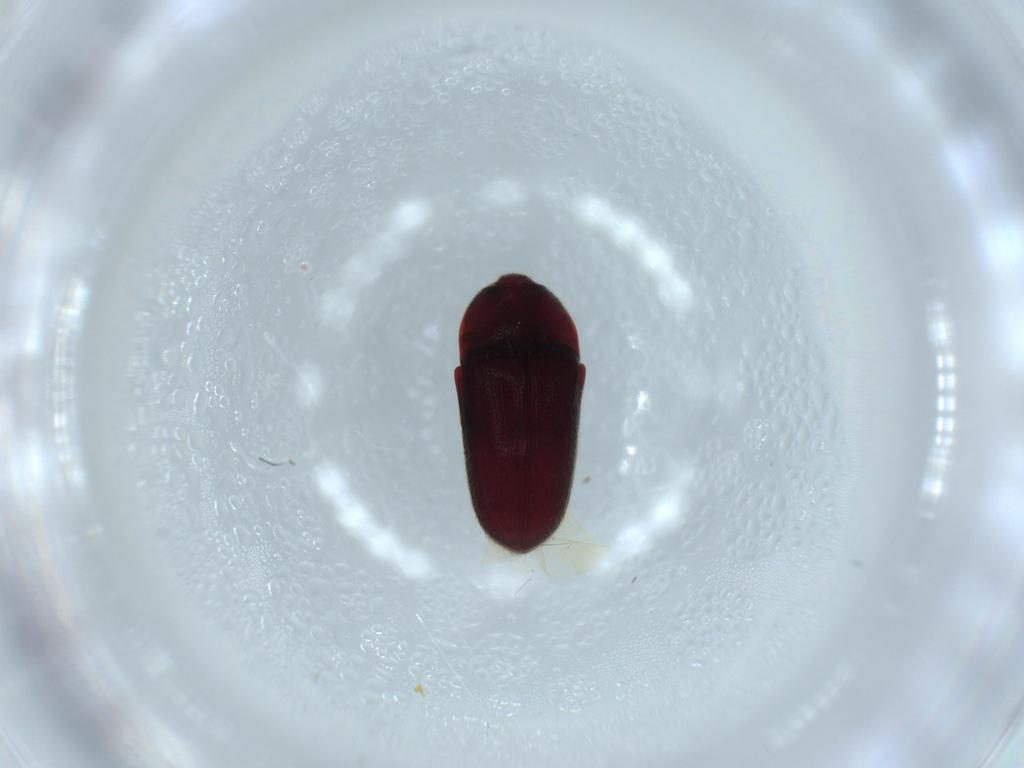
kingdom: Animalia
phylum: Arthropoda
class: Insecta
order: Coleoptera
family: Throscidae
